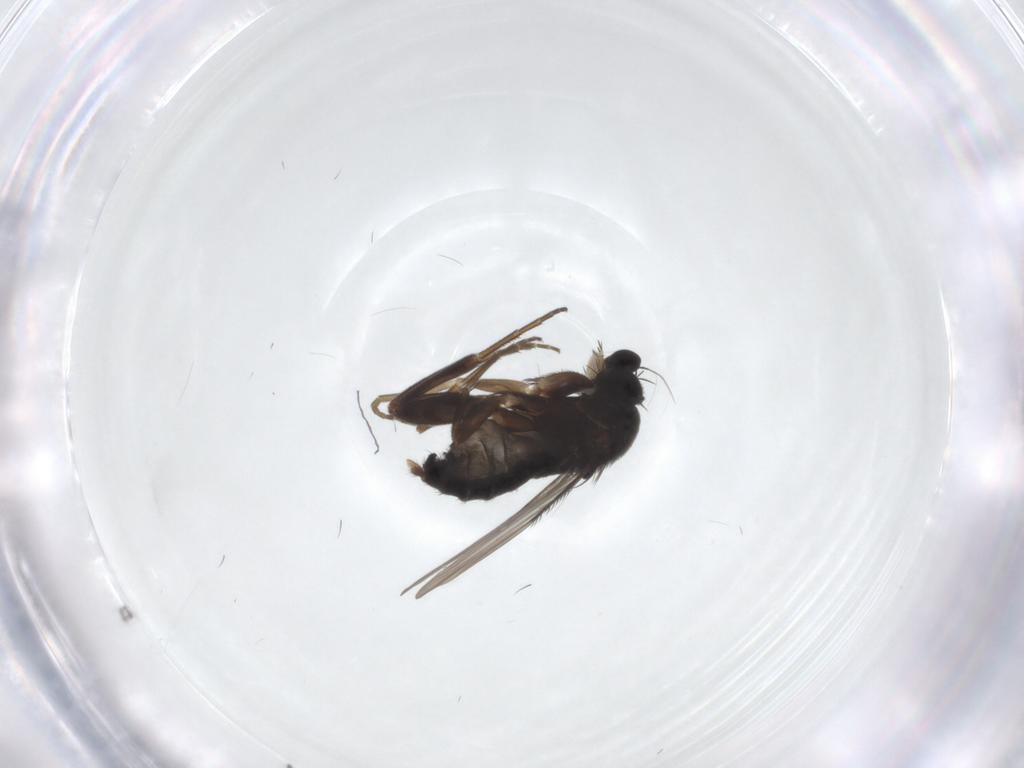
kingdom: Animalia
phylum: Arthropoda
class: Insecta
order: Diptera
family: Phoridae
